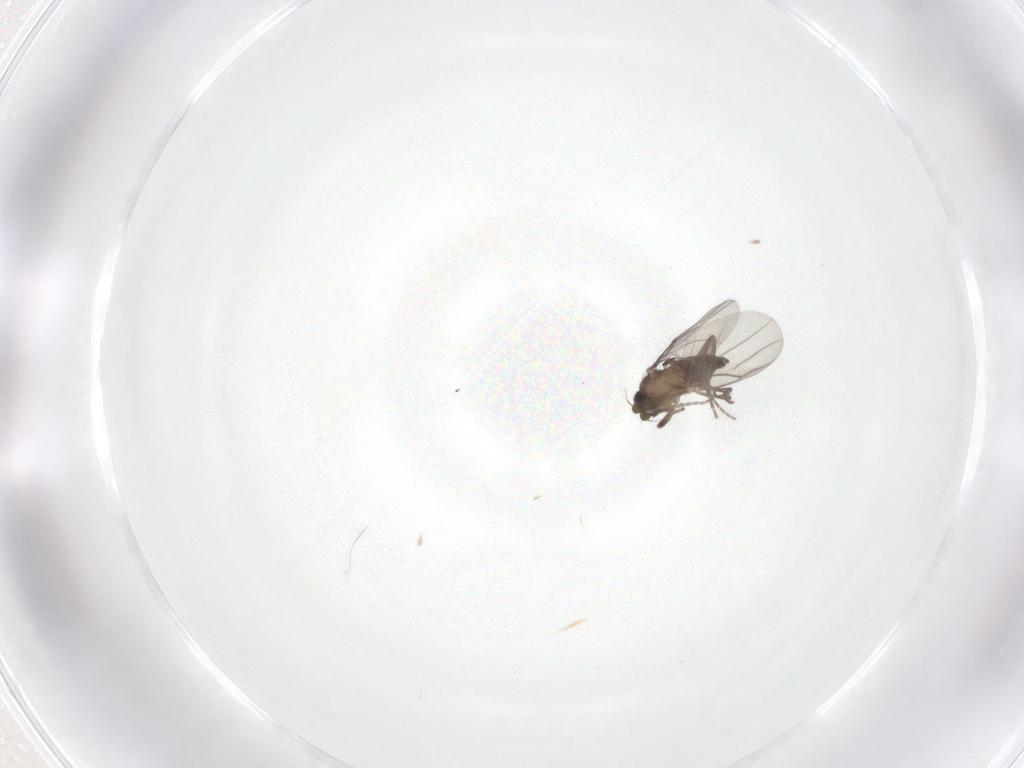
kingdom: Animalia
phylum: Arthropoda
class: Insecta
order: Diptera
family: Phoridae
